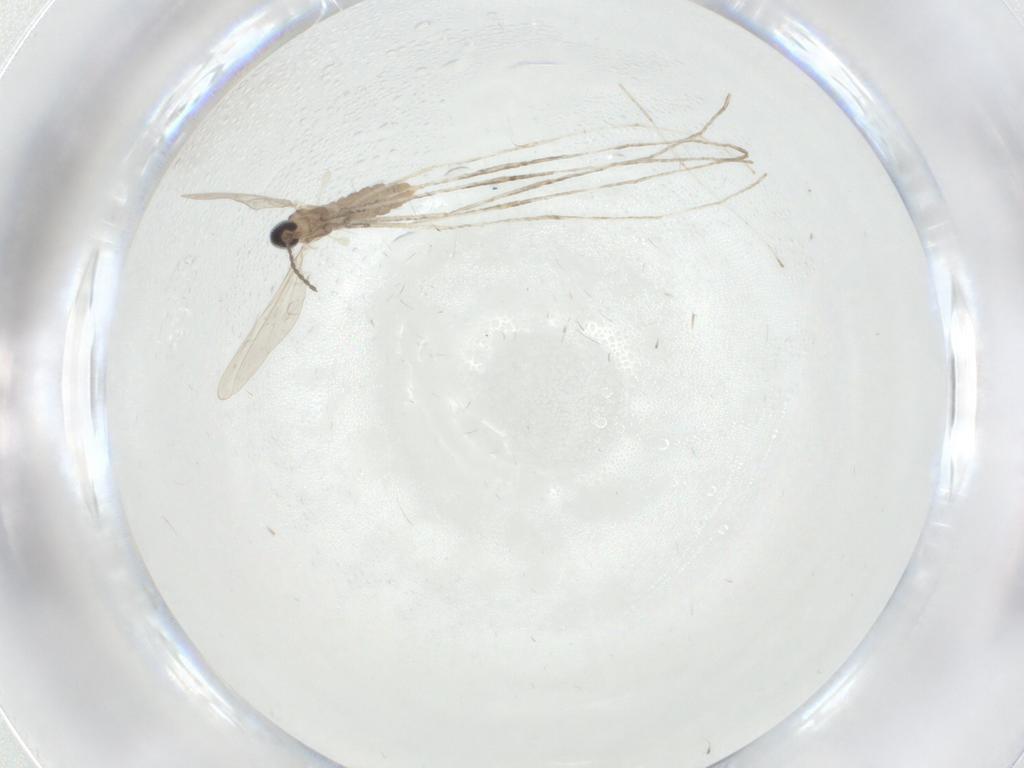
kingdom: Animalia
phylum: Arthropoda
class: Insecta
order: Diptera
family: Cecidomyiidae
